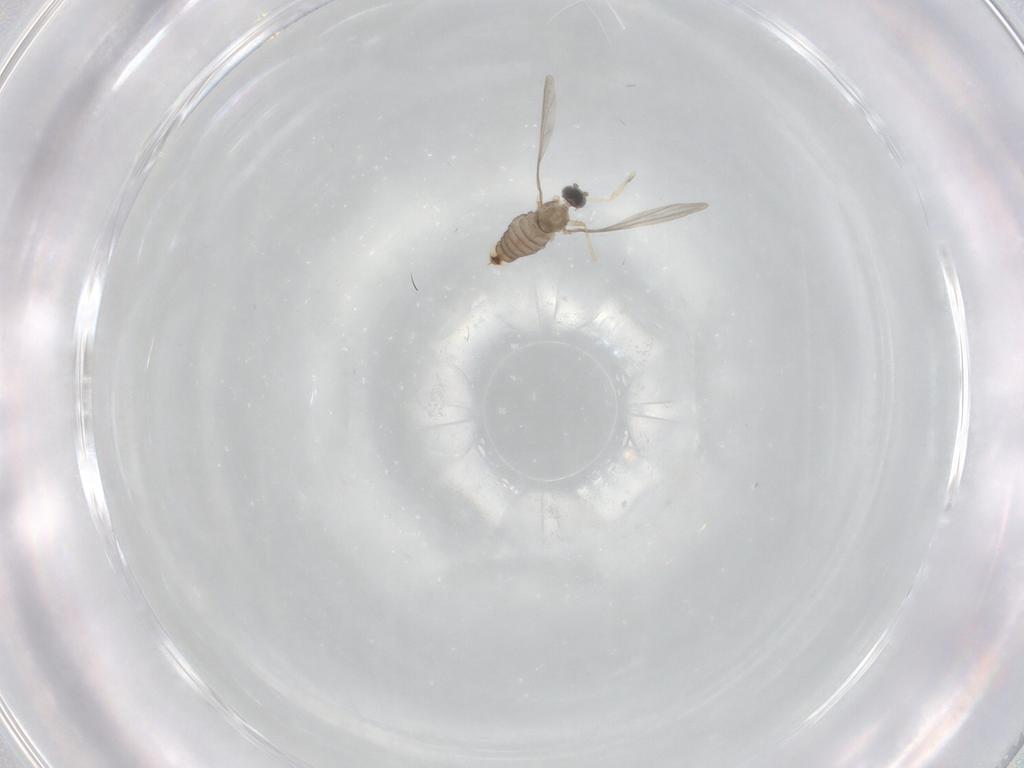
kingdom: Animalia
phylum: Arthropoda
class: Insecta
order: Diptera
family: Cecidomyiidae
